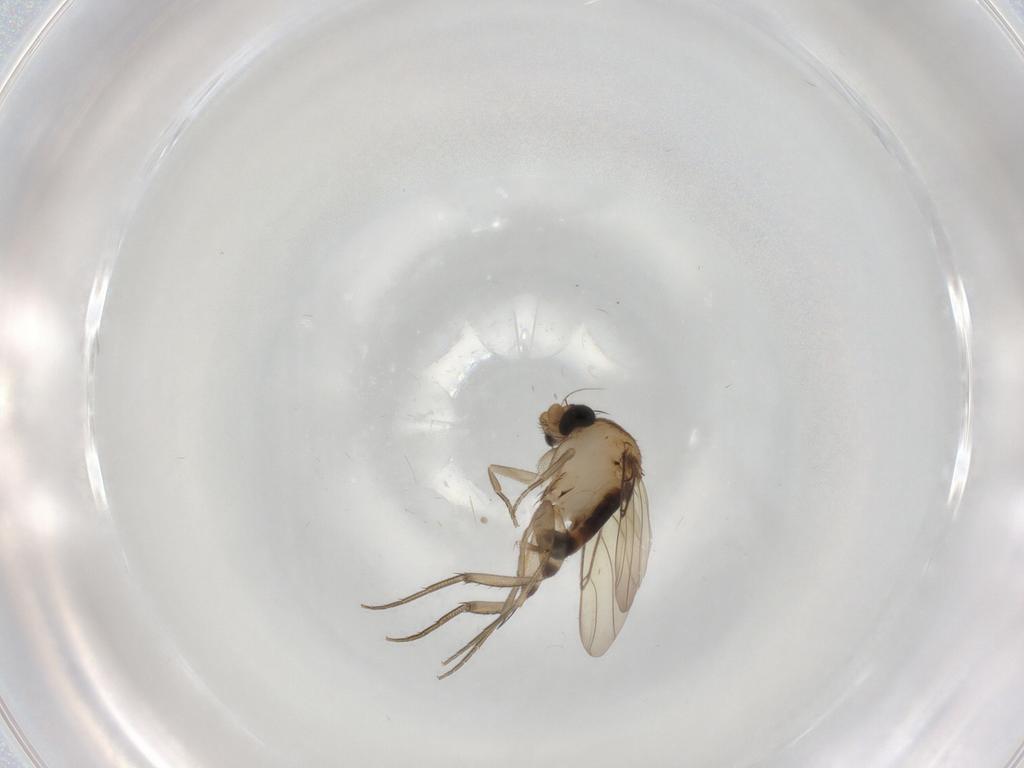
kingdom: Animalia
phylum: Arthropoda
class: Insecta
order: Diptera
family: Phoridae
